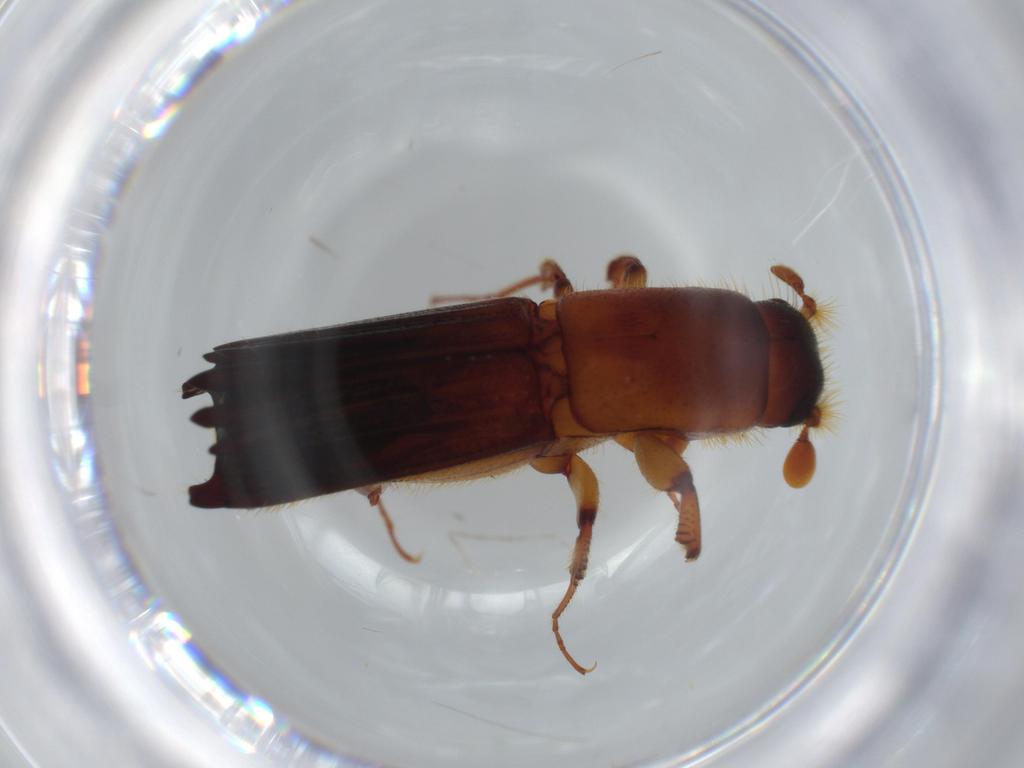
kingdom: Animalia
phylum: Arthropoda
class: Insecta
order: Coleoptera
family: Curculionidae
